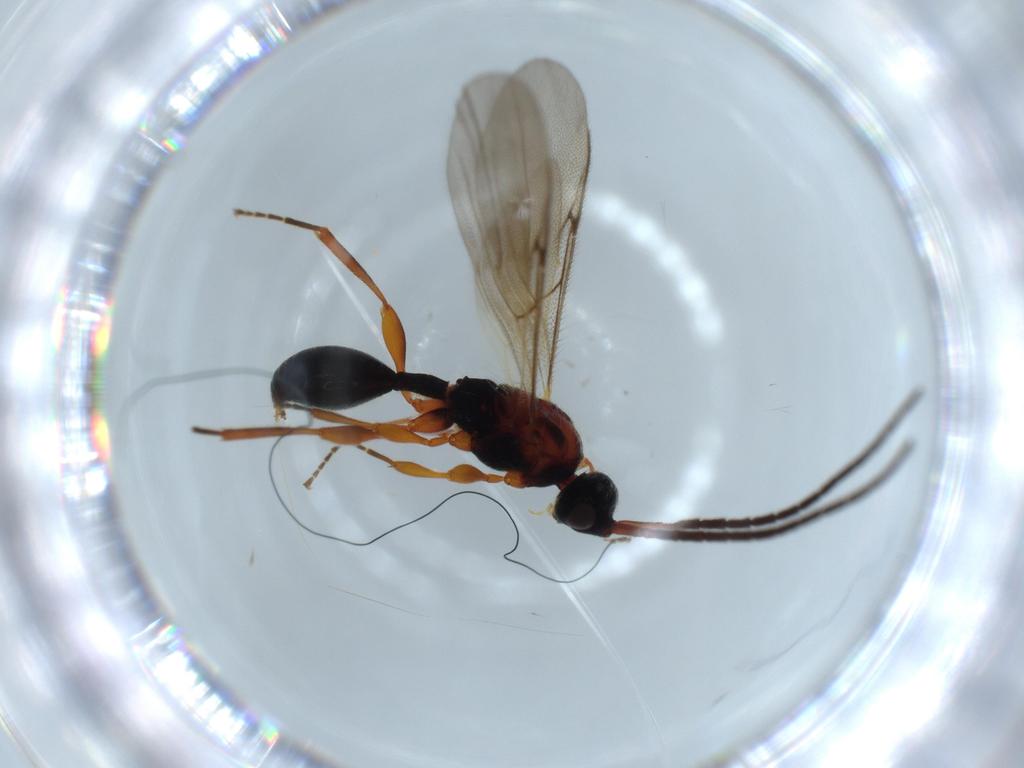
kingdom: Animalia
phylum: Arthropoda
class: Insecta
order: Hymenoptera
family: Diapriidae
